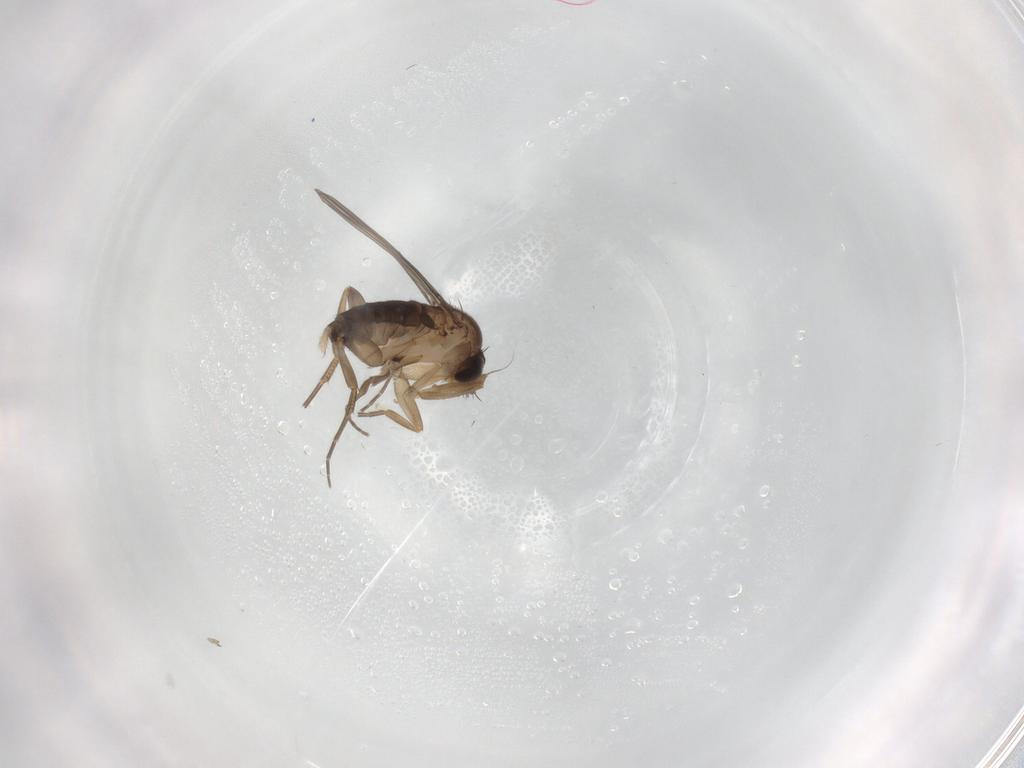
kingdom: Animalia
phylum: Arthropoda
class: Insecta
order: Diptera
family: Phoridae
